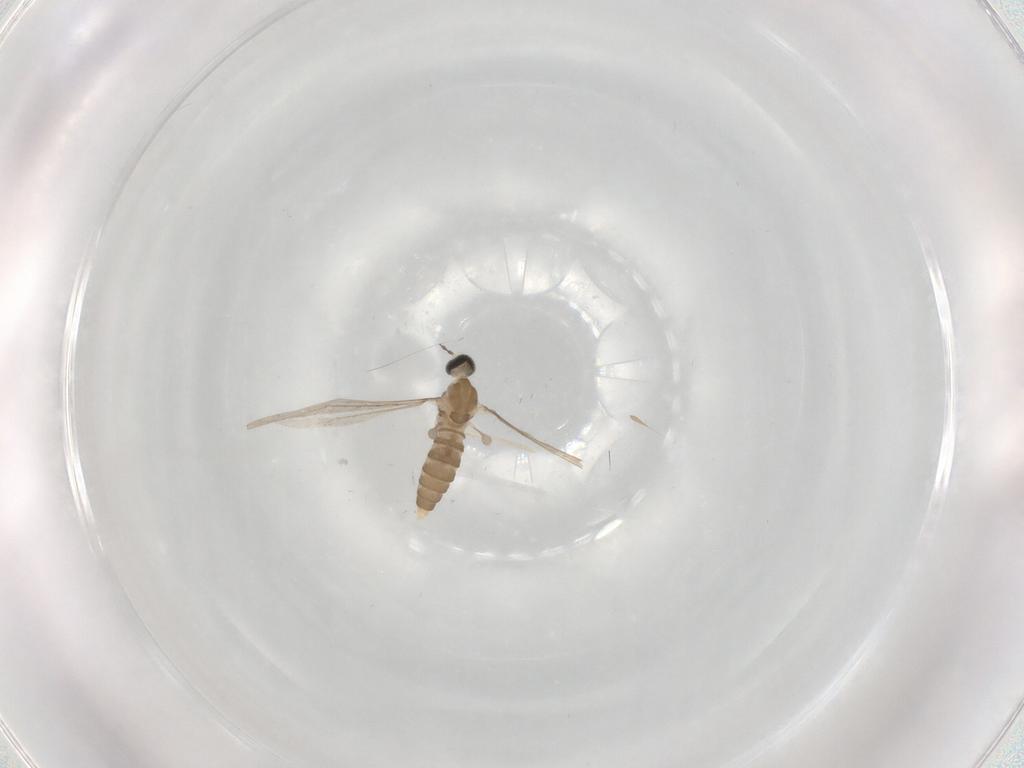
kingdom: Animalia
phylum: Arthropoda
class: Insecta
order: Diptera
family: Cecidomyiidae
